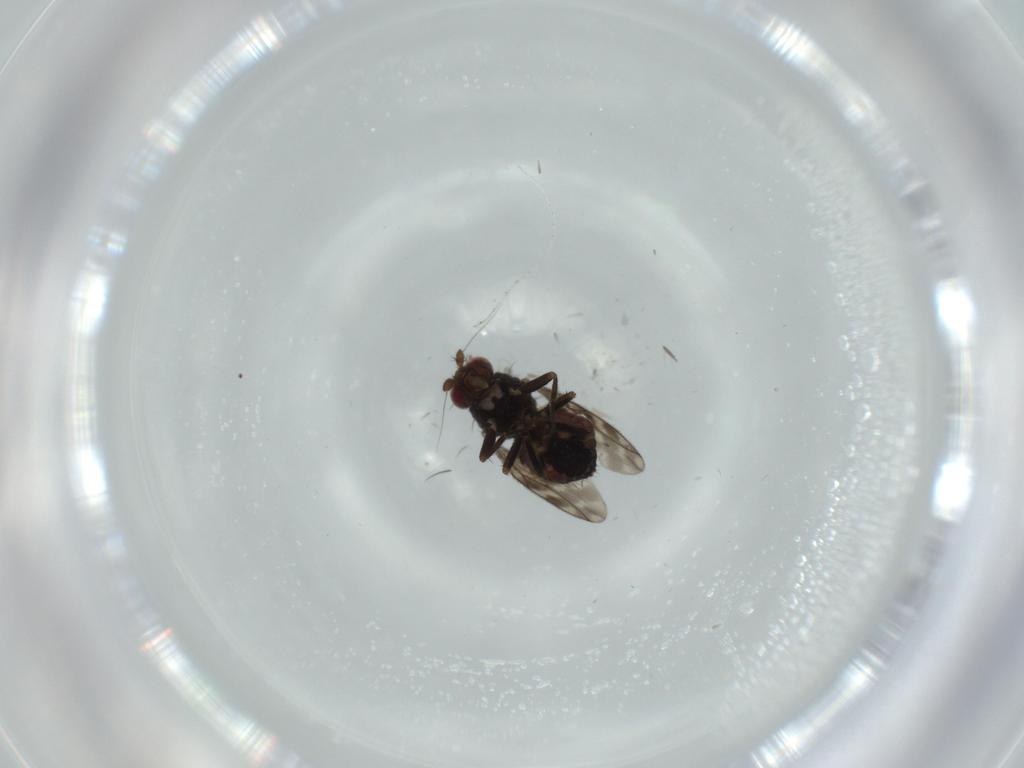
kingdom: Animalia
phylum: Arthropoda
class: Insecta
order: Diptera
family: Sphaeroceridae
